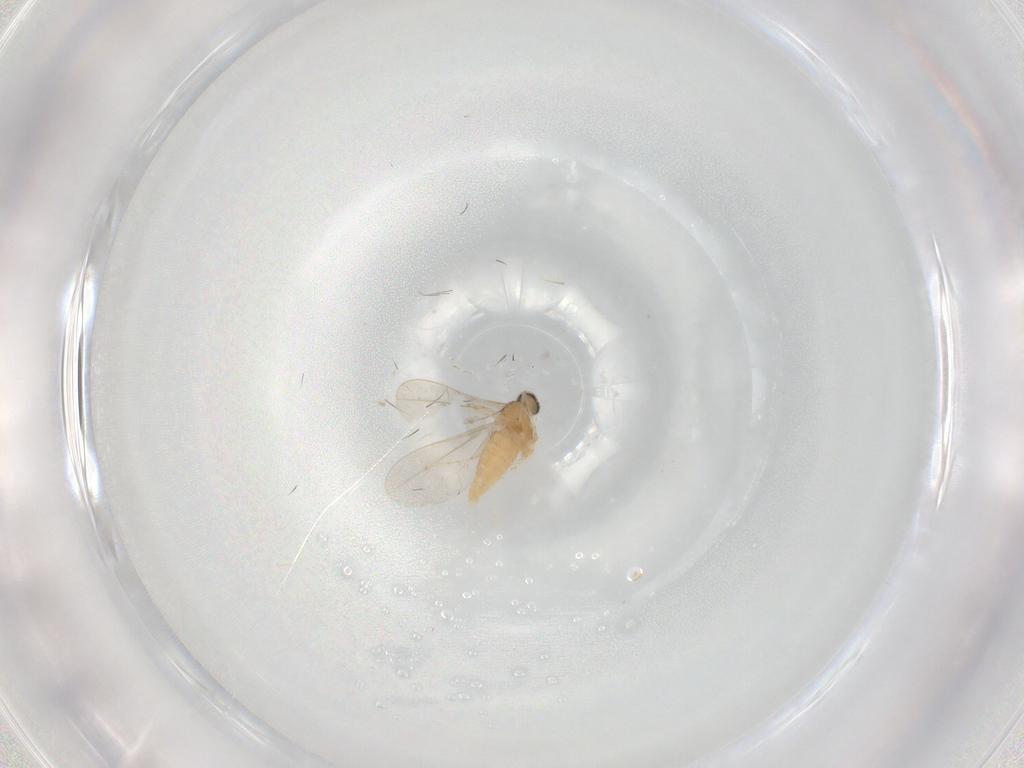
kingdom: Animalia
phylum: Arthropoda
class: Insecta
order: Diptera
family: Cecidomyiidae
